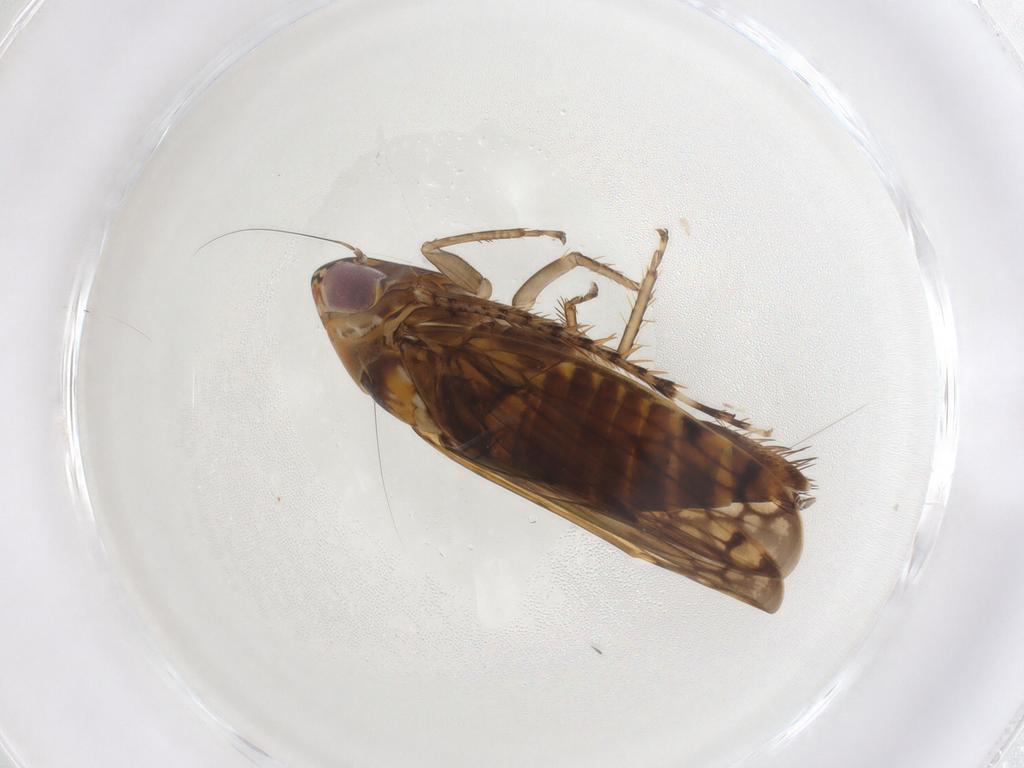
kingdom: Animalia
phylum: Arthropoda
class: Insecta
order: Hemiptera
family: Cicadellidae
